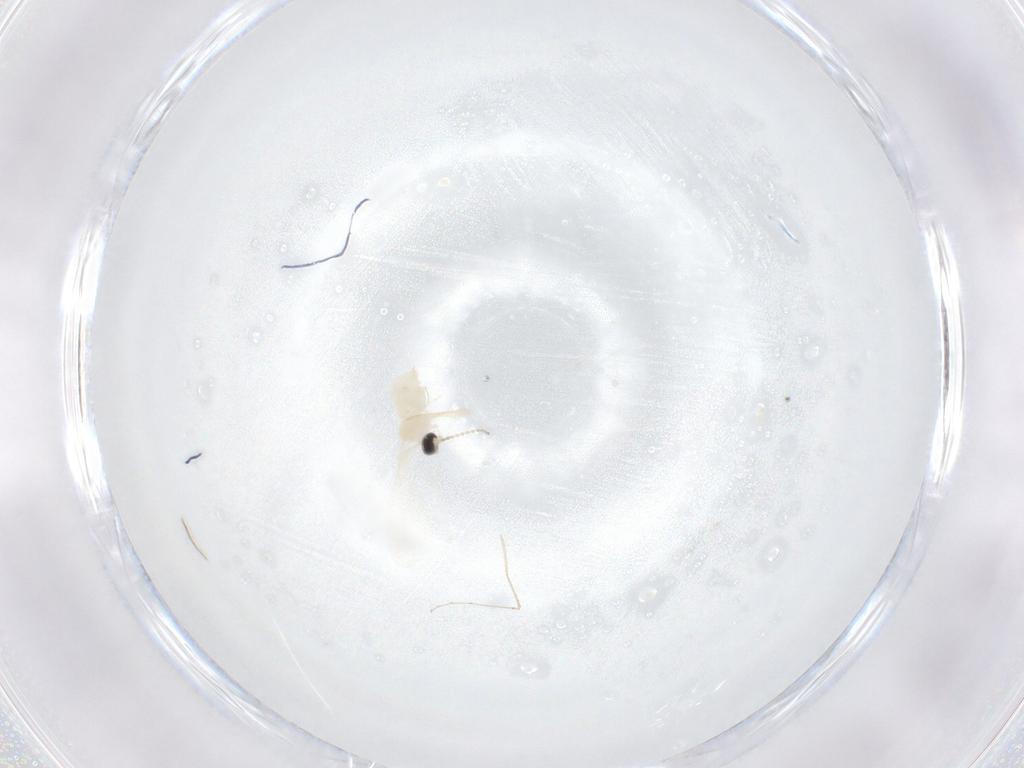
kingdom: Animalia
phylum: Arthropoda
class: Insecta
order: Diptera
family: Cecidomyiidae
